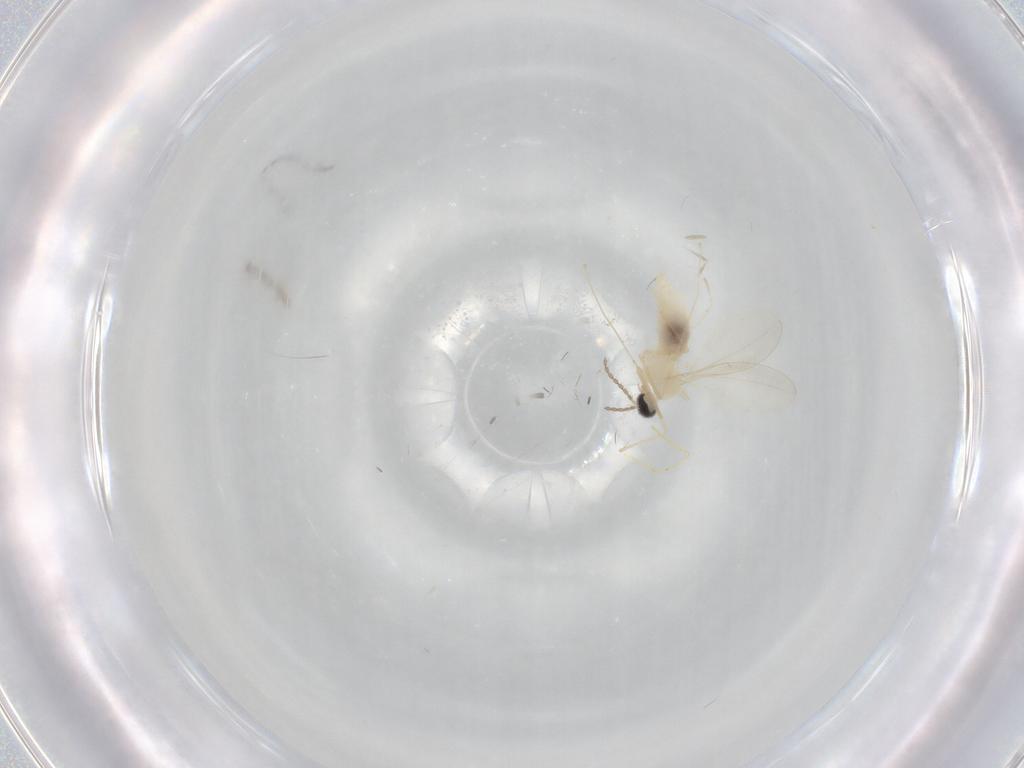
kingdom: Animalia
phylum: Arthropoda
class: Insecta
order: Diptera
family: Cecidomyiidae
